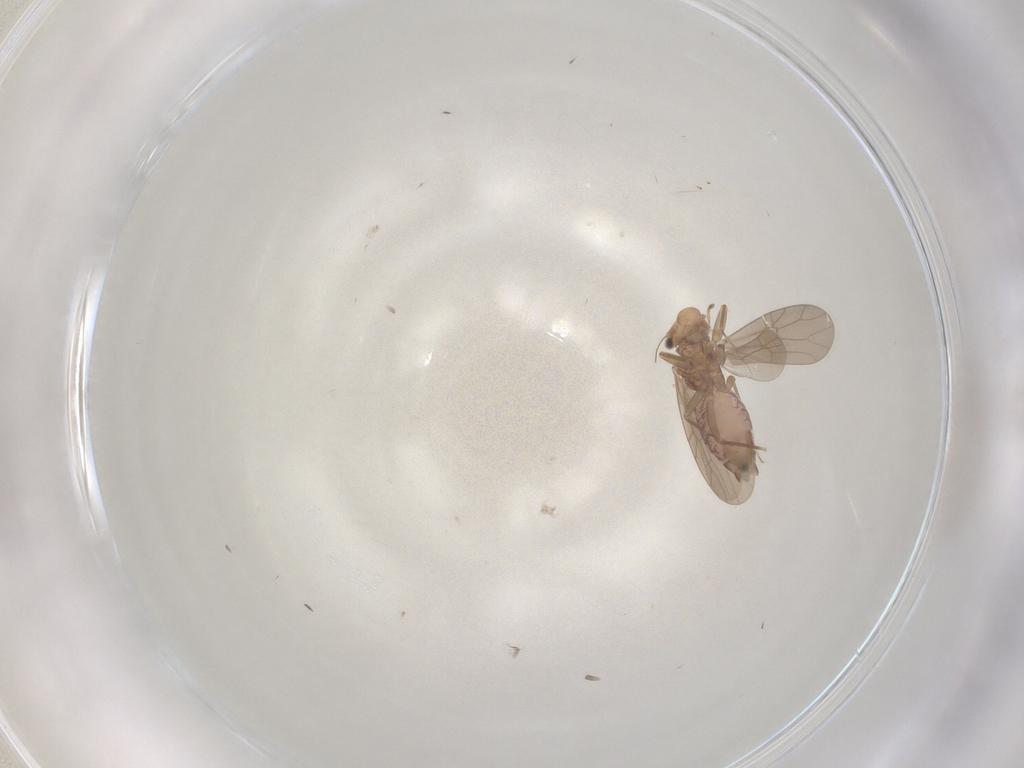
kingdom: Animalia
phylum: Arthropoda
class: Insecta
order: Psocodea
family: Lepidopsocidae
